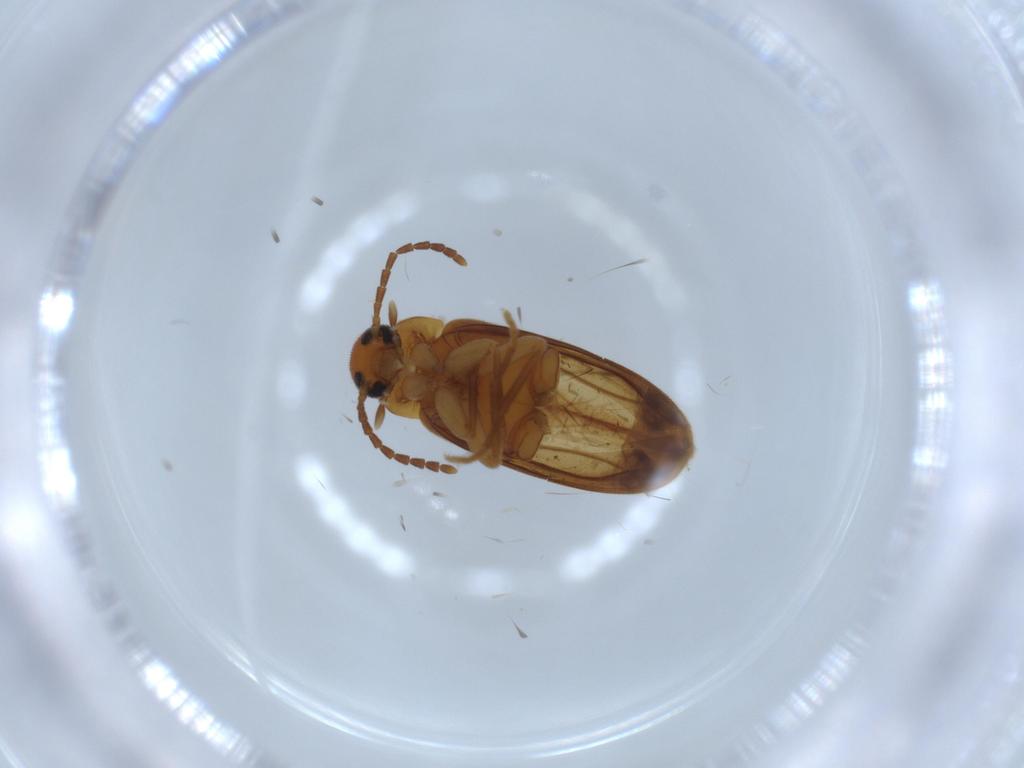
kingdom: Animalia
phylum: Arthropoda
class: Insecta
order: Coleoptera
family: Scraptiidae
